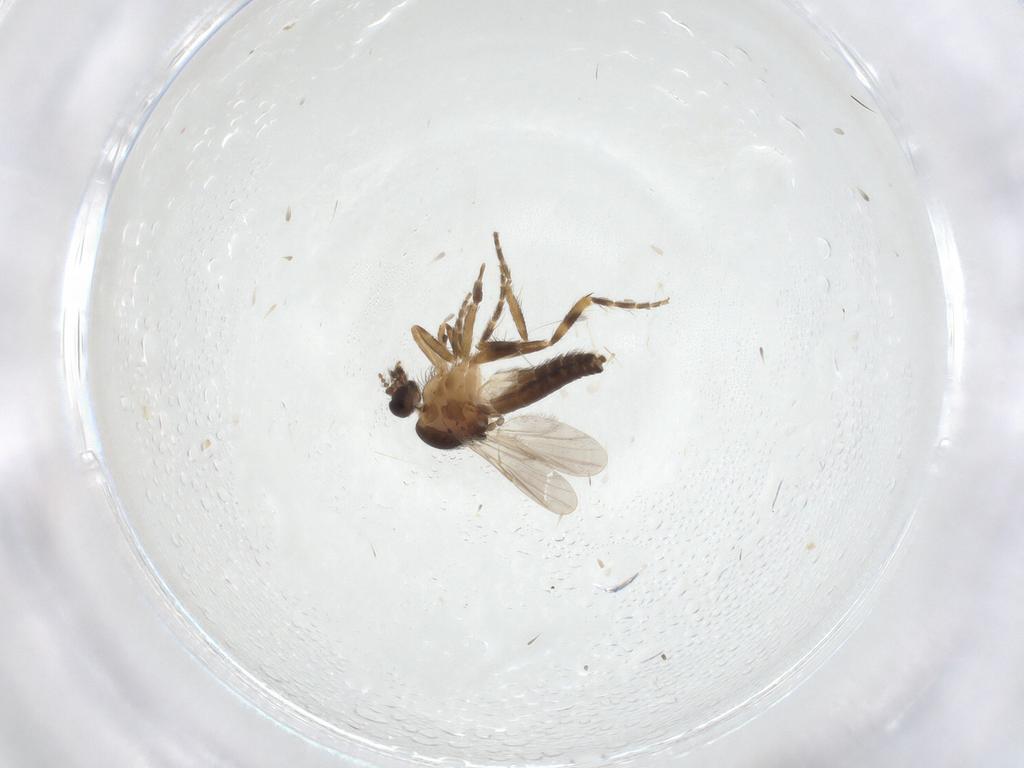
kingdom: Animalia
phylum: Arthropoda
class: Insecta
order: Diptera
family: Ceratopogonidae
